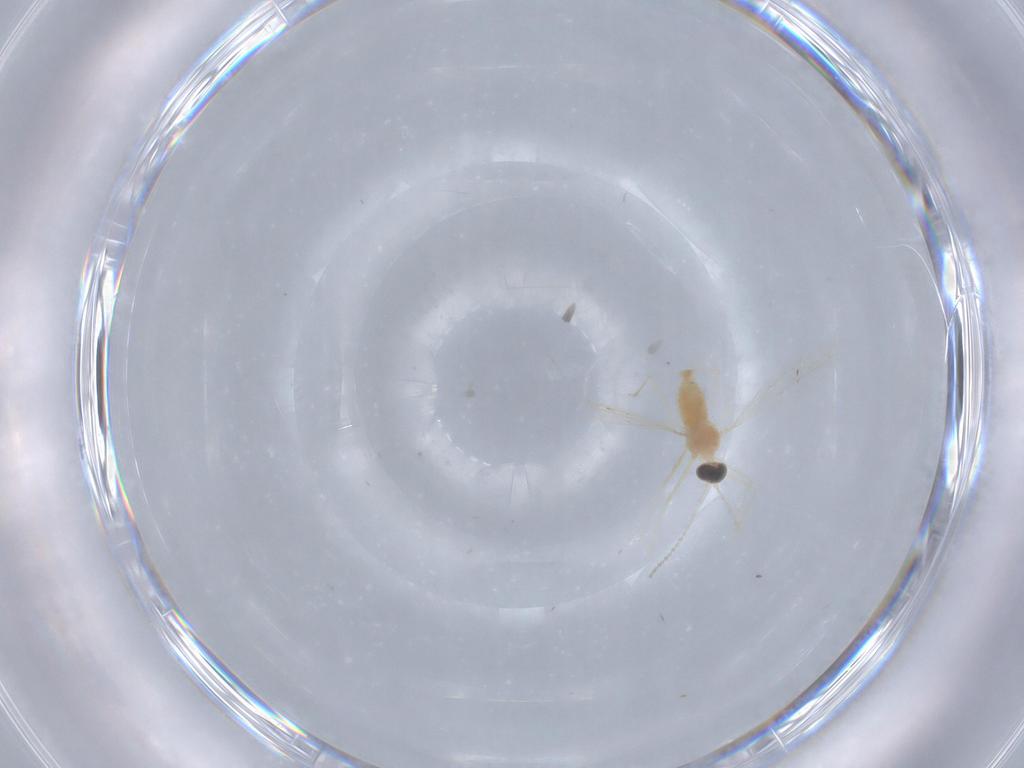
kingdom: Animalia
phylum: Arthropoda
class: Insecta
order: Diptera
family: Cecidomyiidae
